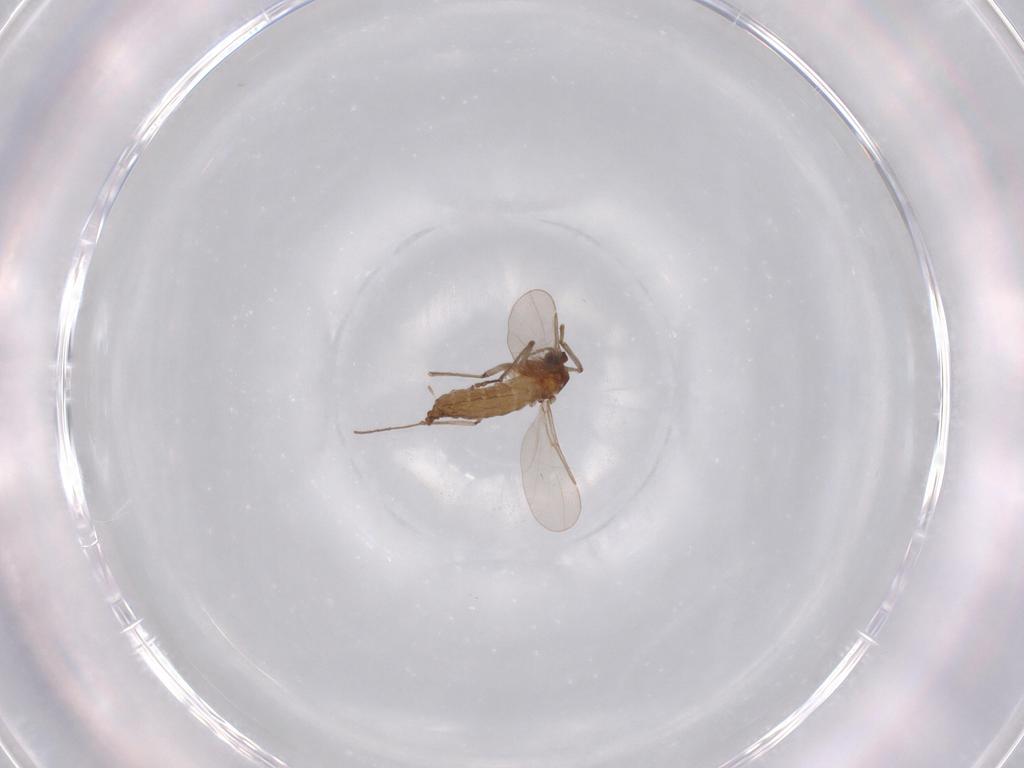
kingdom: Animalia
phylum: Arthropoda
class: Insecta
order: Diptera
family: Cecidomyiidae
